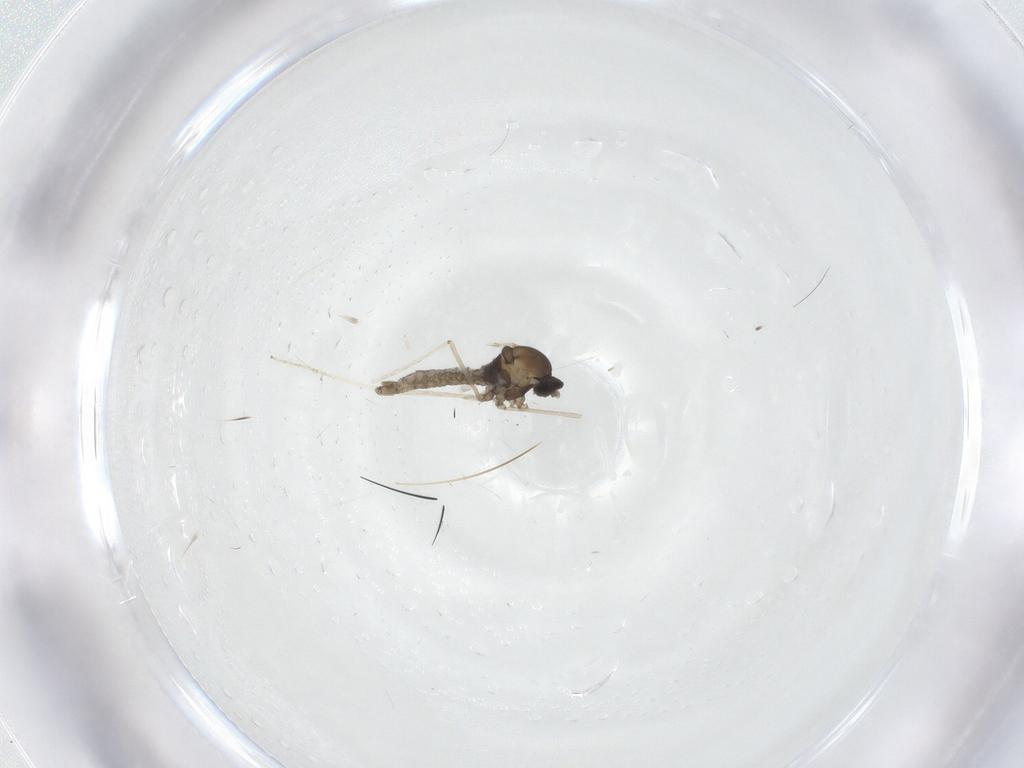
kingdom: Animalia
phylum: Arthropoda
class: Insecta
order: Diptera
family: Cecidomyiidae
